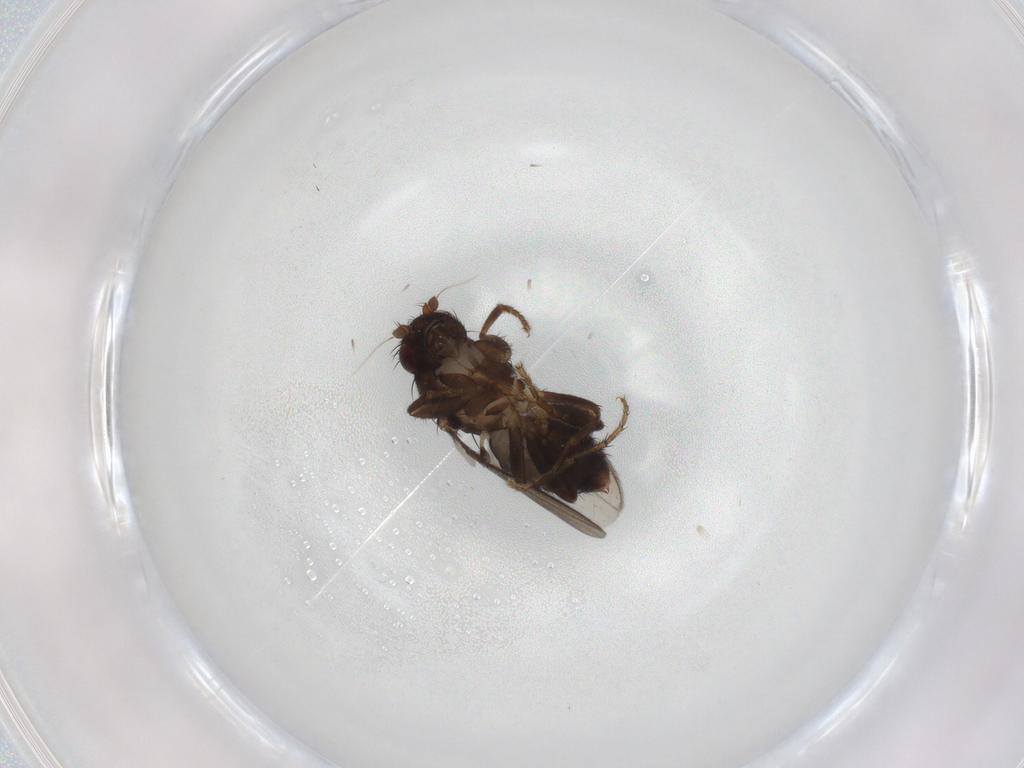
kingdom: Animalia
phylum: Arthropoda
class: Insecta
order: Diptera
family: Sphaeroceridae
